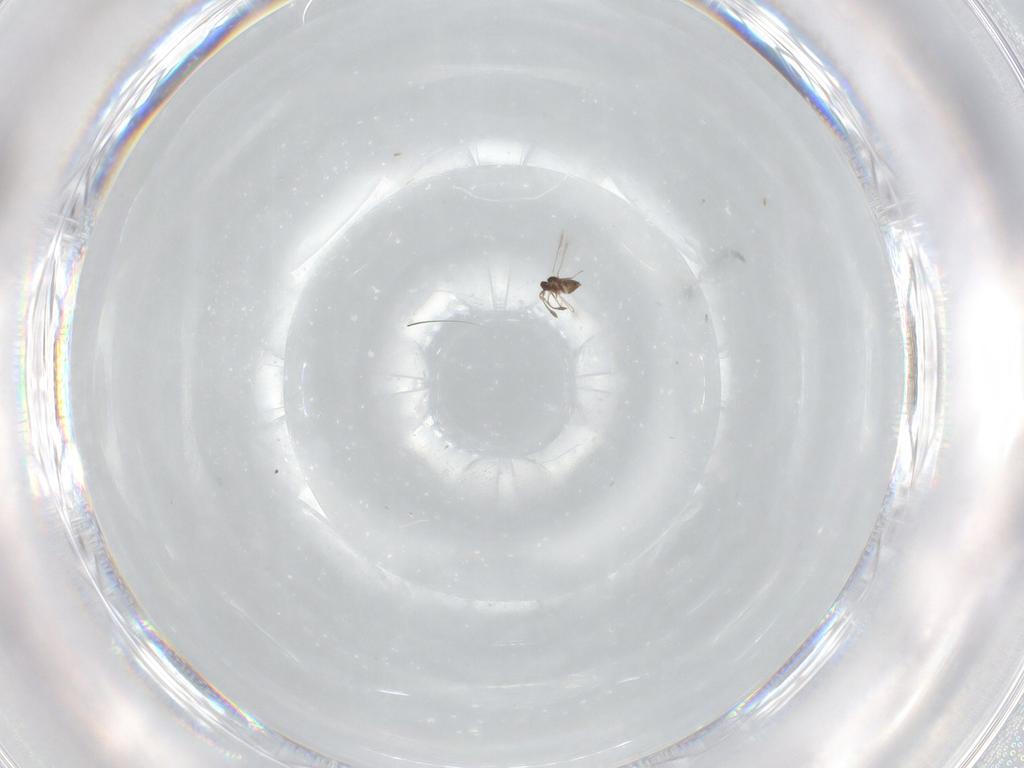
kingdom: Animalia
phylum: Arthropoda
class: Insecta
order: Hymenoptera
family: Mymaridae
